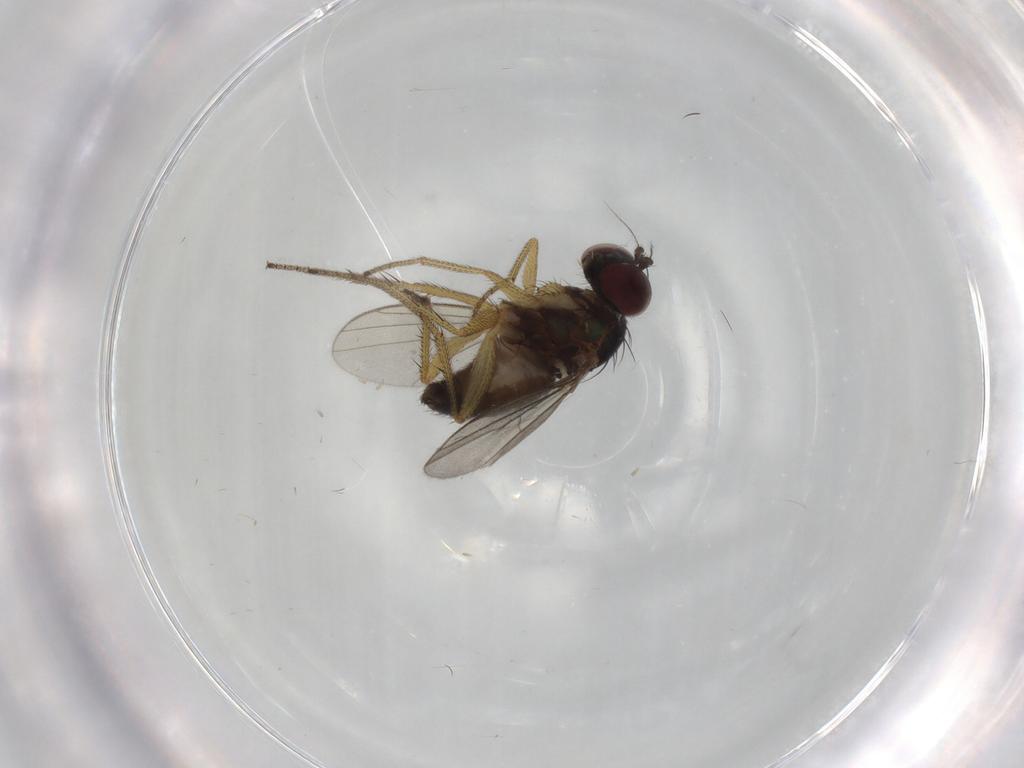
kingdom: Animalia
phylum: Arthropoda
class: Insecta
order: Diptera
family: Dolichopodidae
